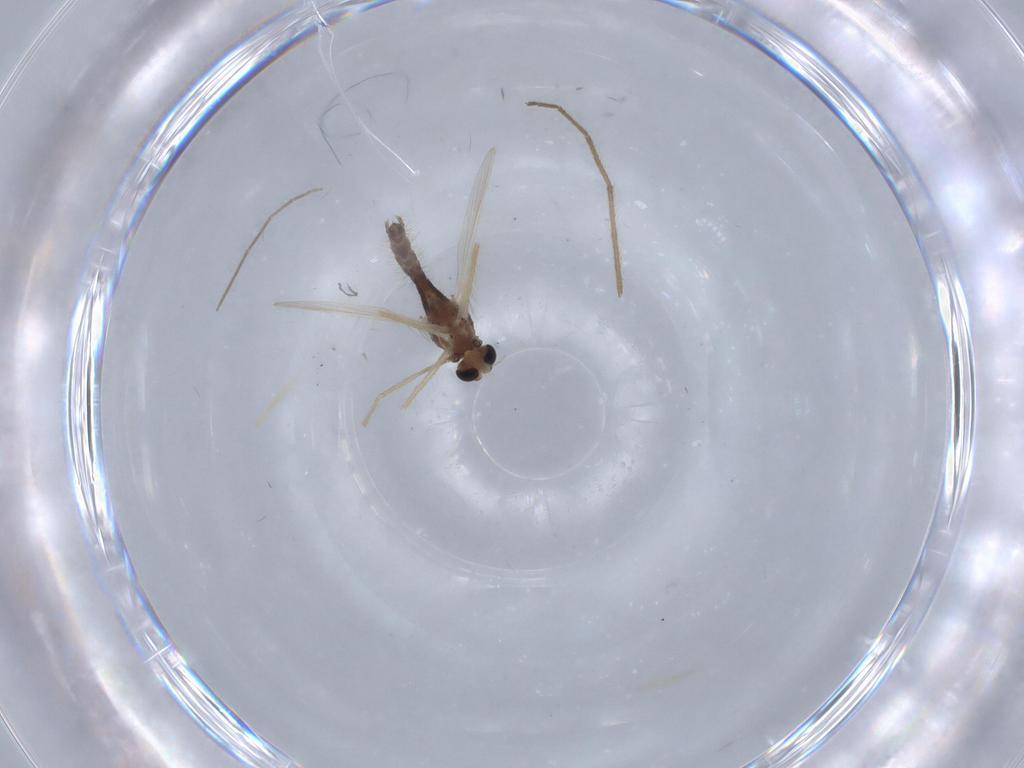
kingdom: Animalia
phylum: Arthropoda
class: Insecta
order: Diptera
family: Chironomidae
